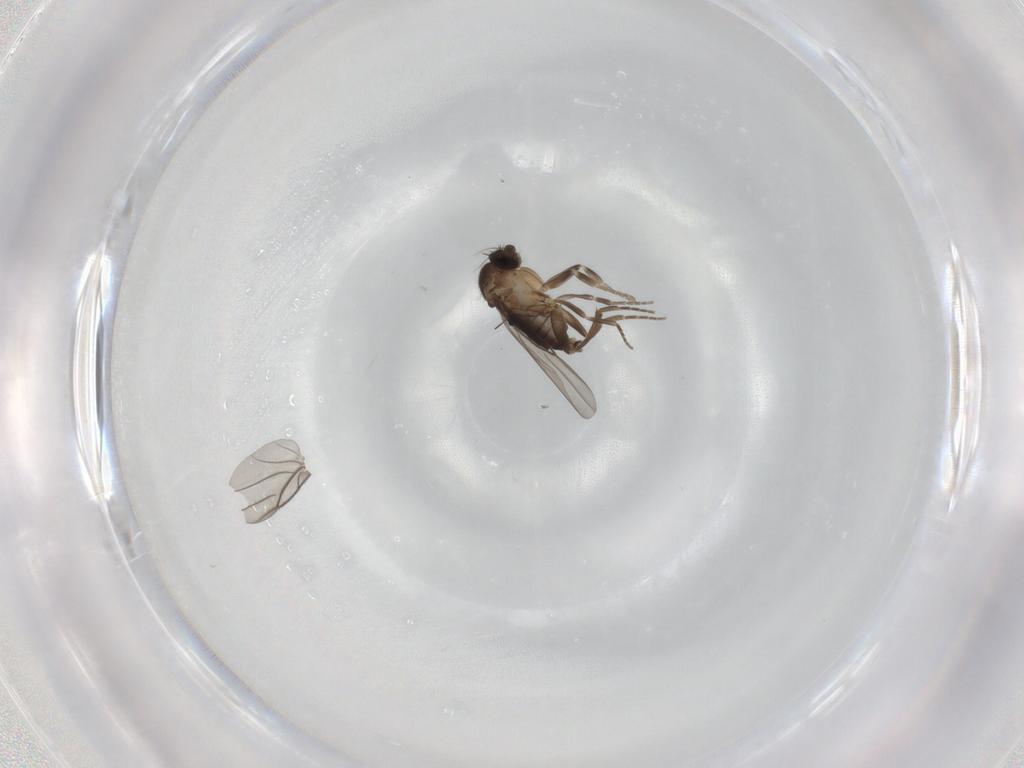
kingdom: Animalia
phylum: Arthropoda
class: Insecta
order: Diptera
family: Phoridae
